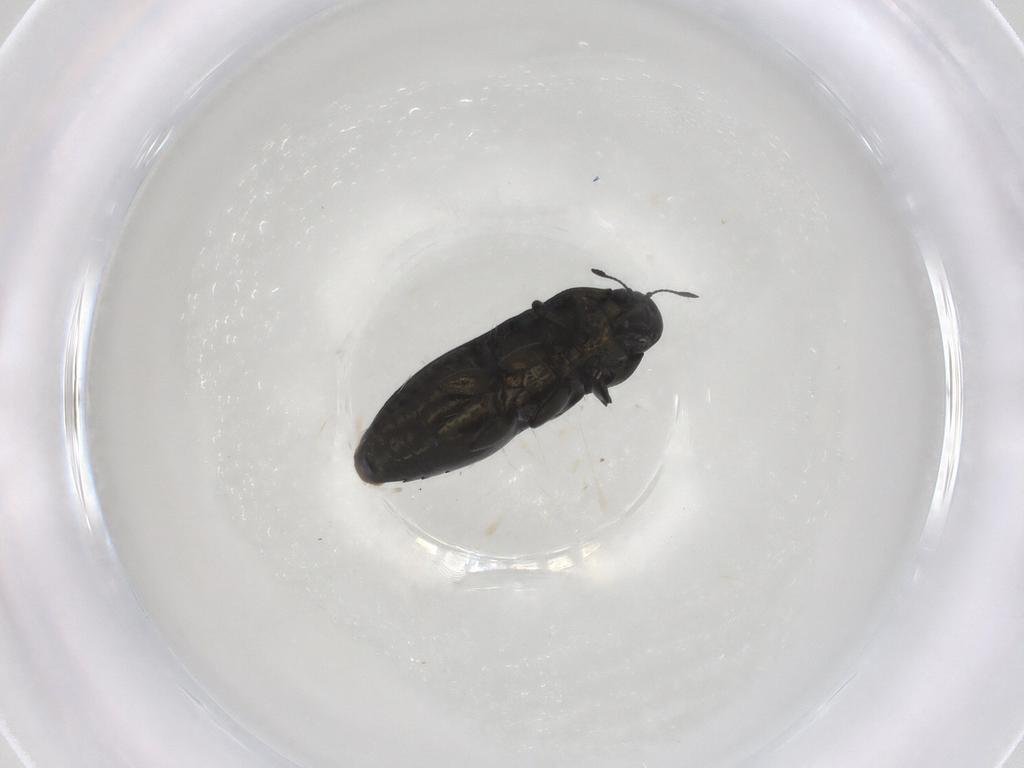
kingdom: Animalia
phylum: Arthropoda
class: Insecta
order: Coleoptera
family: Buprestidae
